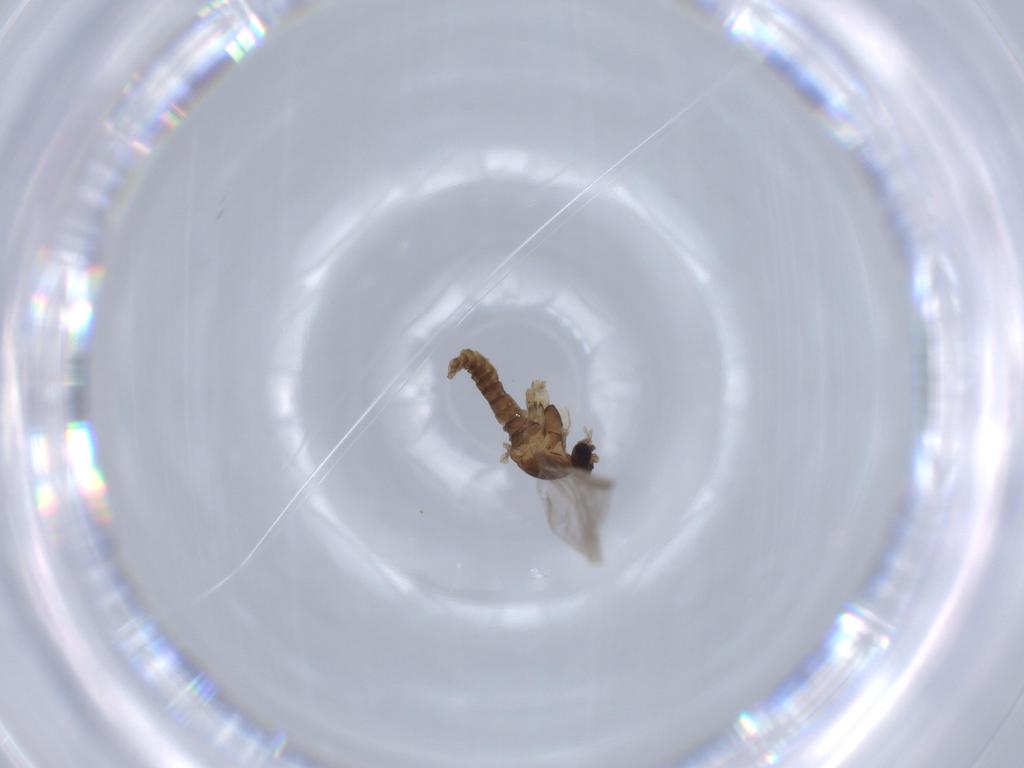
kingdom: Animalia
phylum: Arthropoda
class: Insecta
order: Diptera
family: Cecidomyiidae
